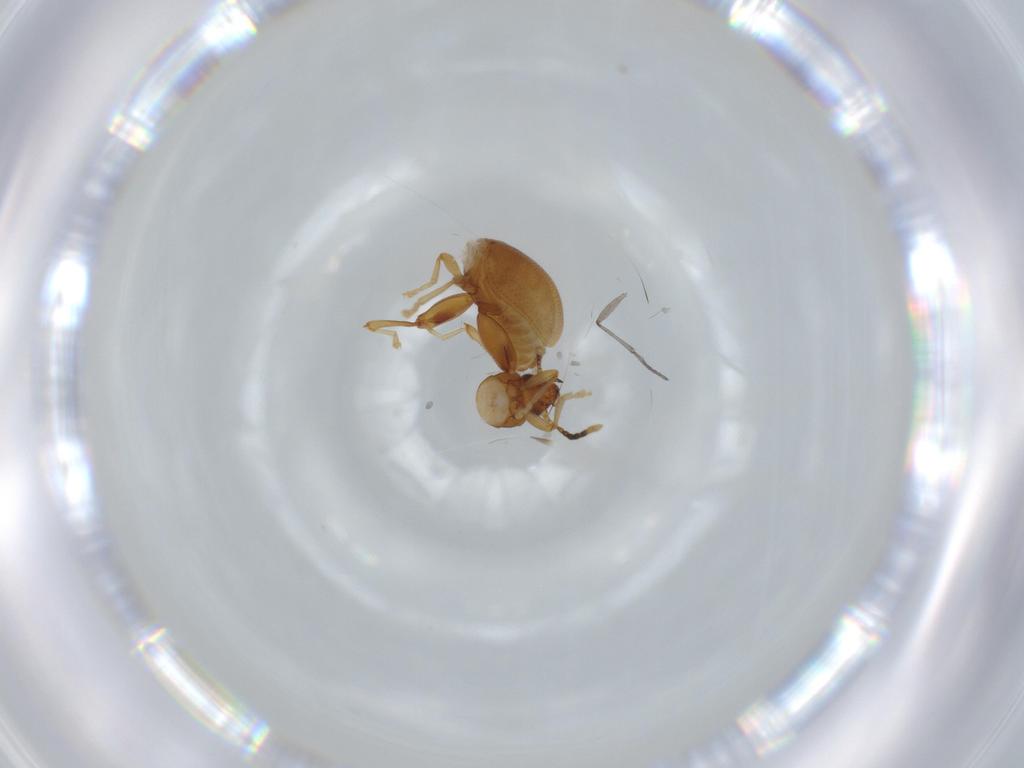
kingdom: Animalia
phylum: Arthropoda
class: Insecta
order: Coleoptera
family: Chrysomelidae
